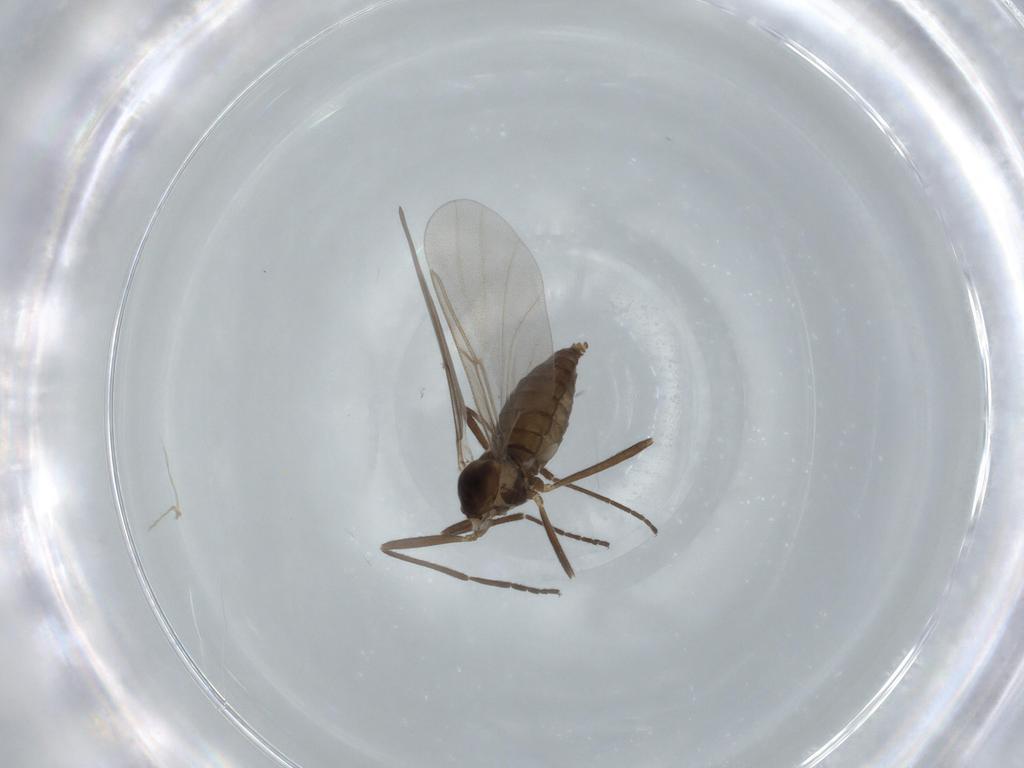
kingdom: Animalia
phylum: Arthropoda
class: Insecta
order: Diptera
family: Cecidomyiidae
